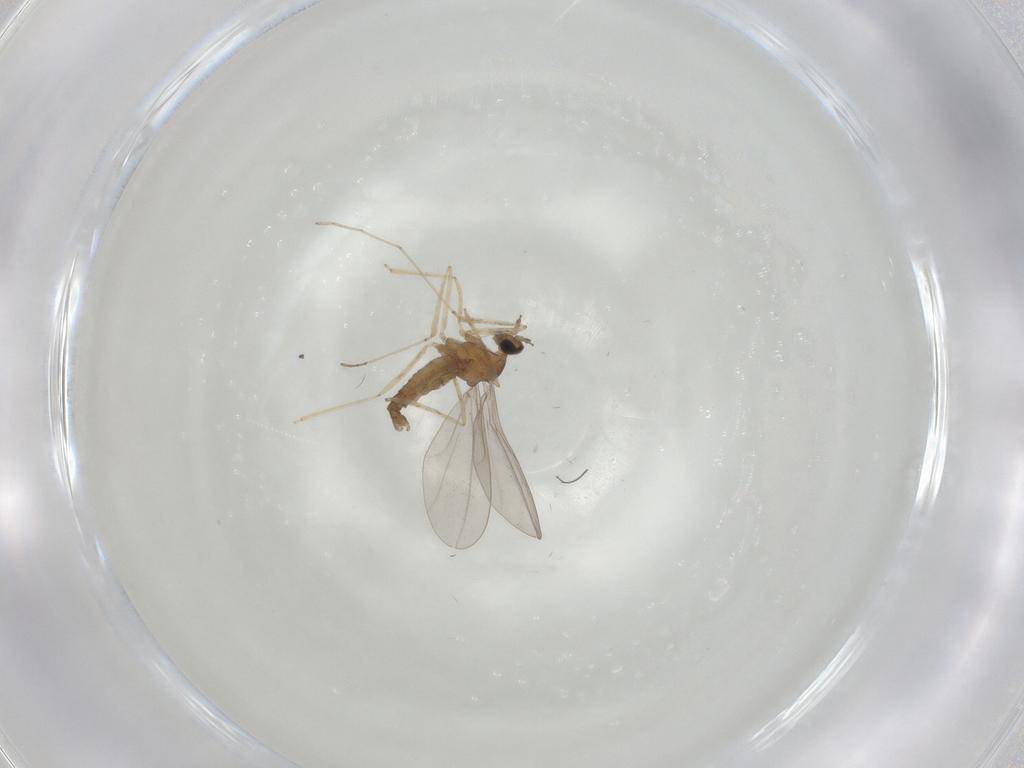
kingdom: Animalia
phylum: Arthropoda
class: Insecta
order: Diptera
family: Cecidomyiidae
